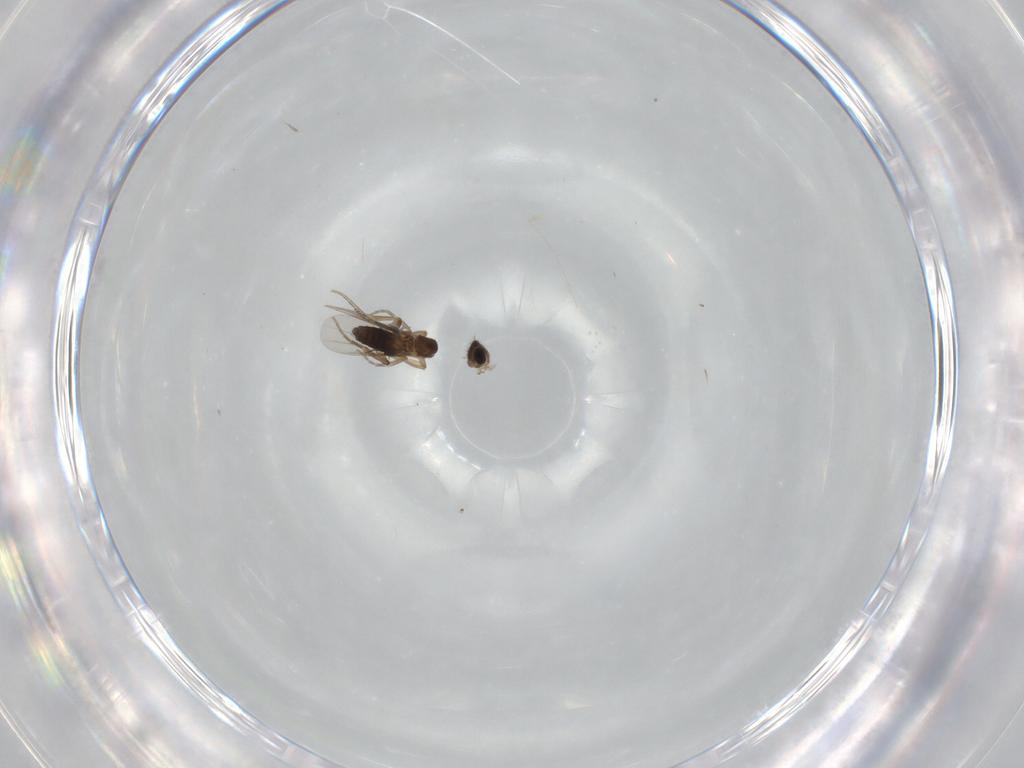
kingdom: Animalia
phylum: Arthropoda
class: Insecta
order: Diptera
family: Phoridae
